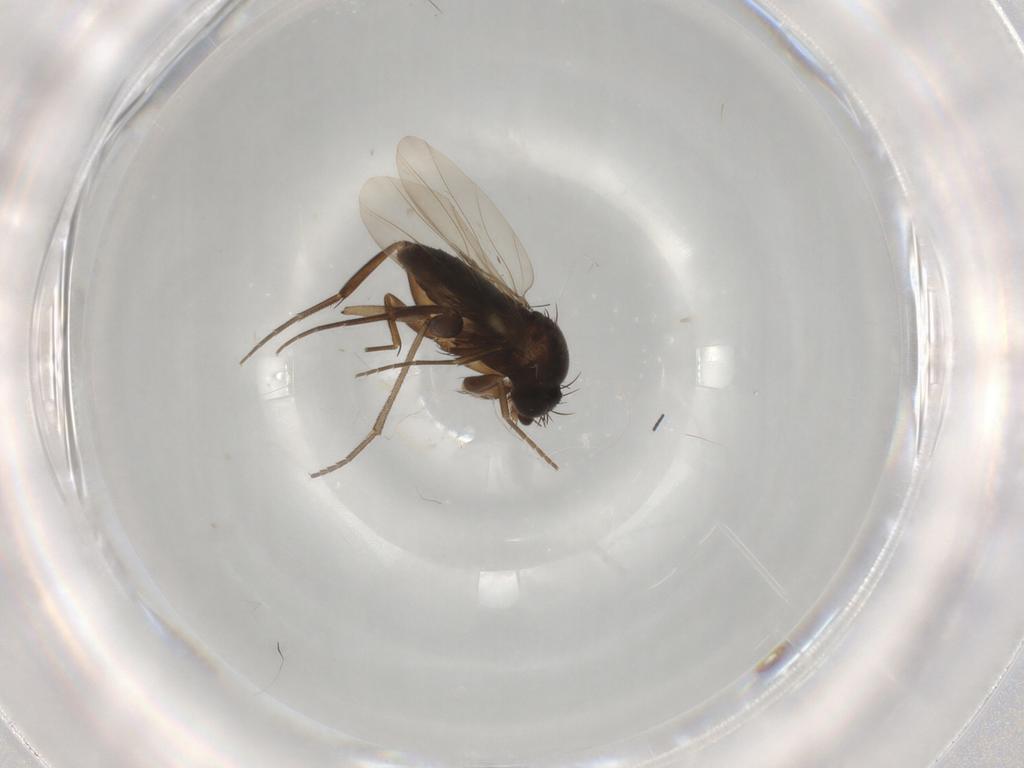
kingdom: Animalia
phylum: Arthropoda
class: Insecta
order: Diptera
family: Phoridae
